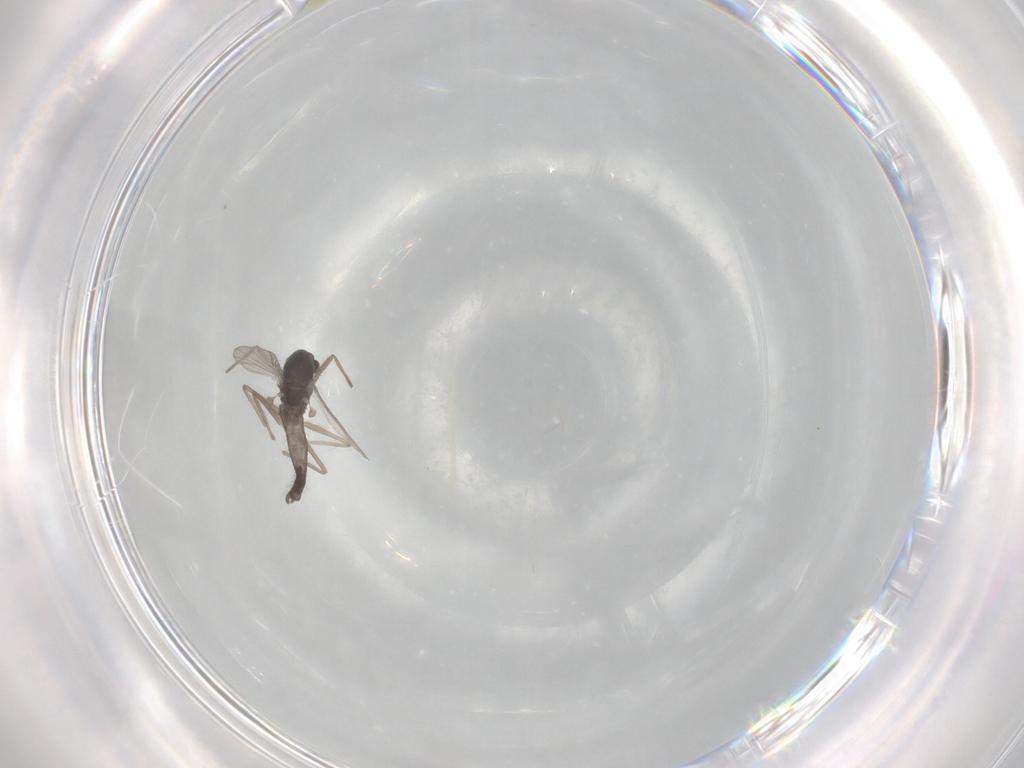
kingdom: Animalia
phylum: Arthropoda
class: Insecta
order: Diptera
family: Chironomidae
